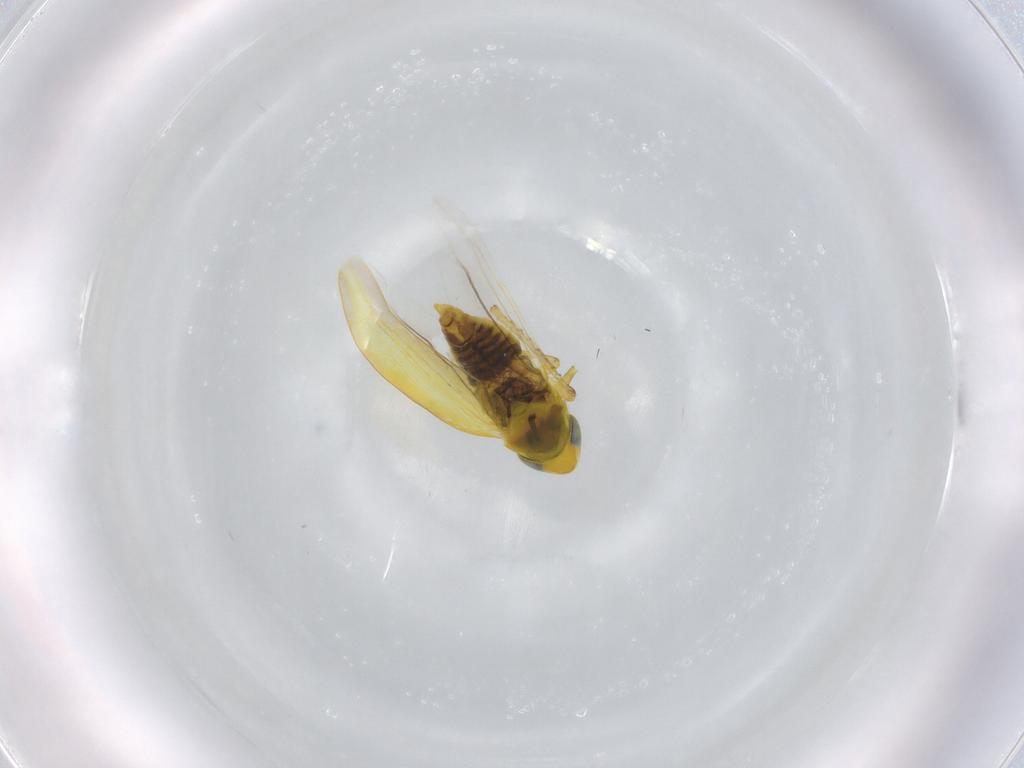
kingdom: Animalia
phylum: Arthropoda
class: Insecta
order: Hemiptera
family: Cicadellidae
